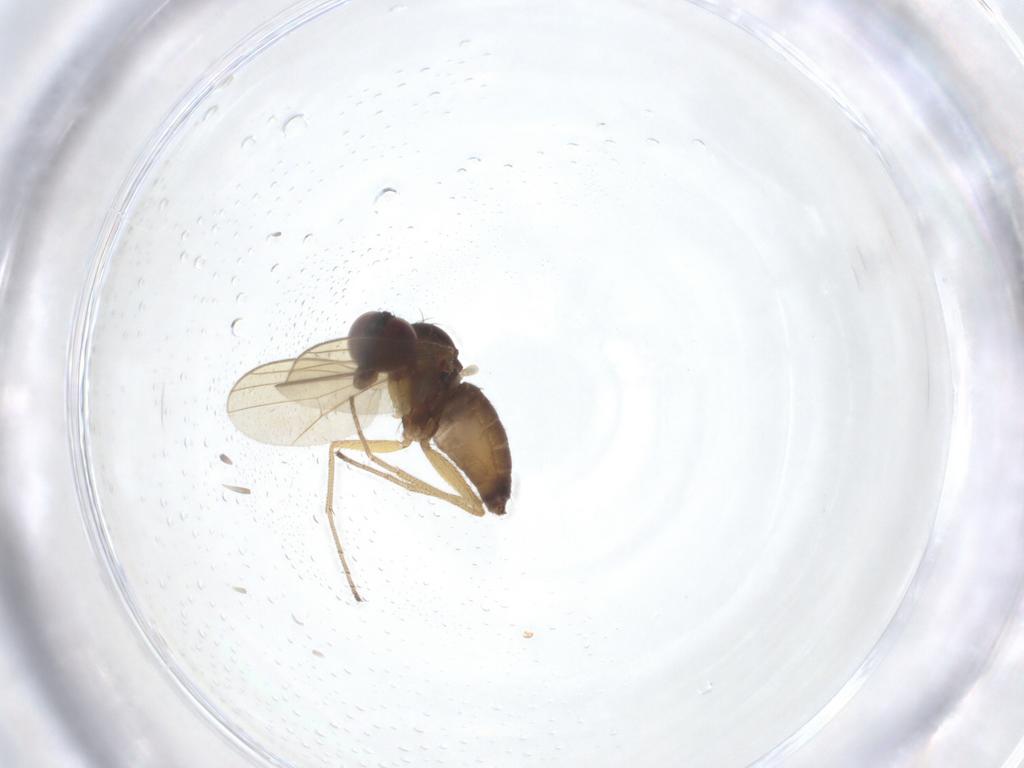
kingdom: Animalia
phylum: Arthropoda
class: Insecta
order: Diptera
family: Dolichopodidae
